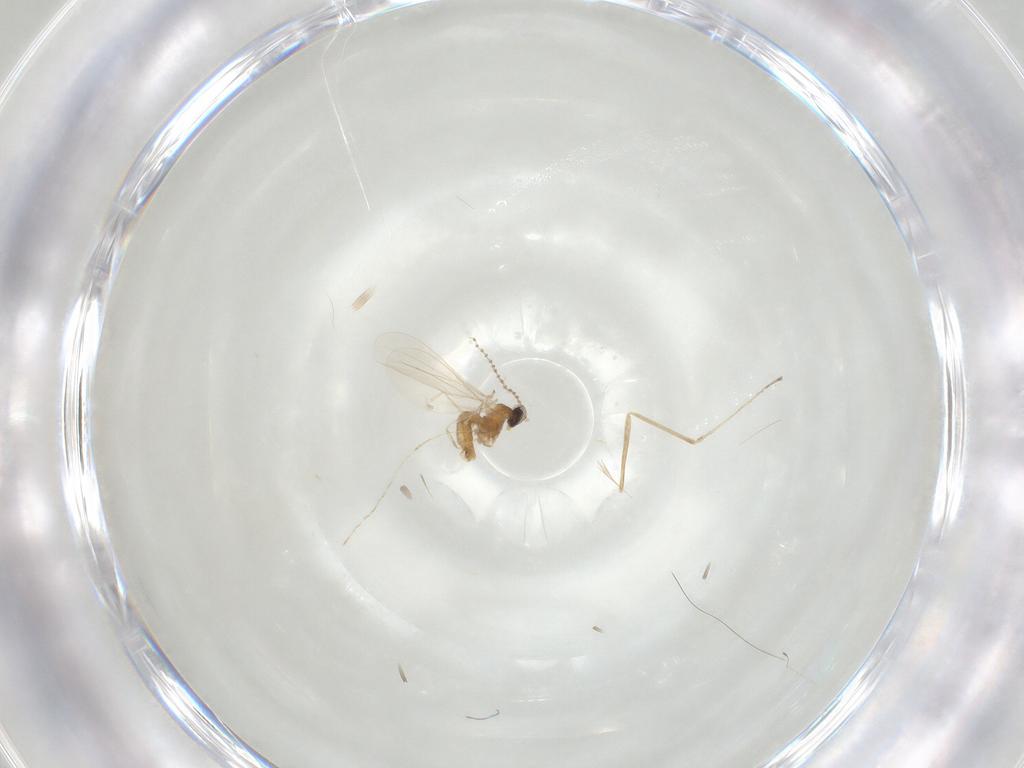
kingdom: Animalia
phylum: Arthropoda
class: Insecta
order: Diptera
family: Cecidomyiidae
